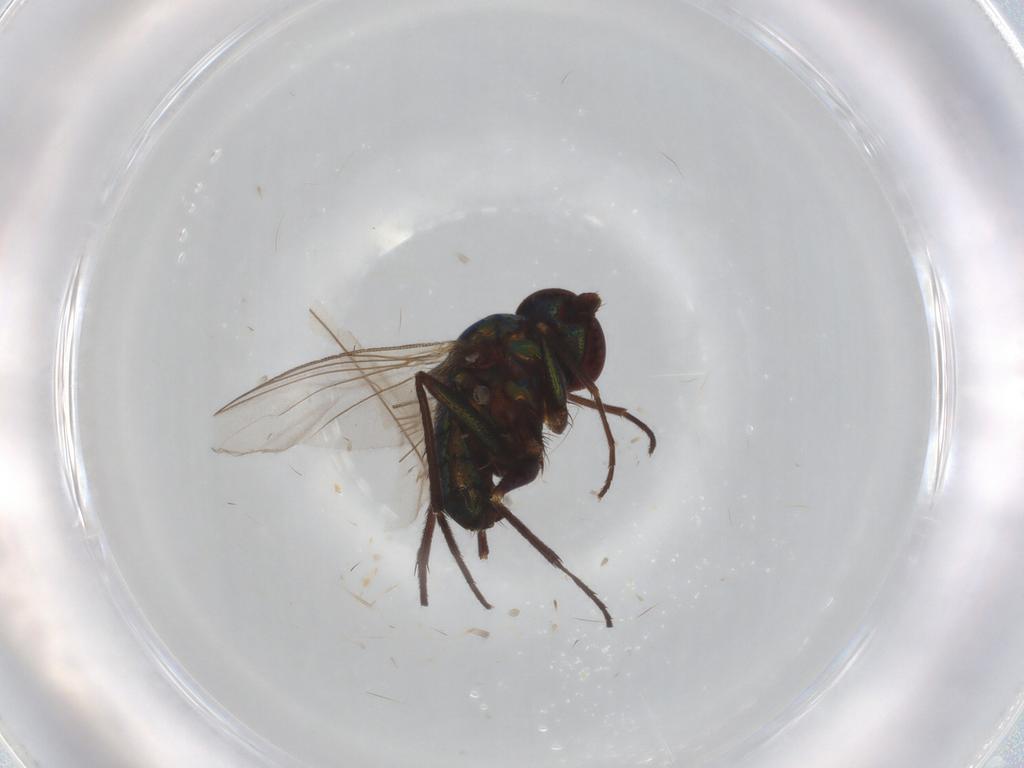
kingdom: Animalia
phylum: Arthropoda
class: Insecta
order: Diptera
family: Dolichopodidae
